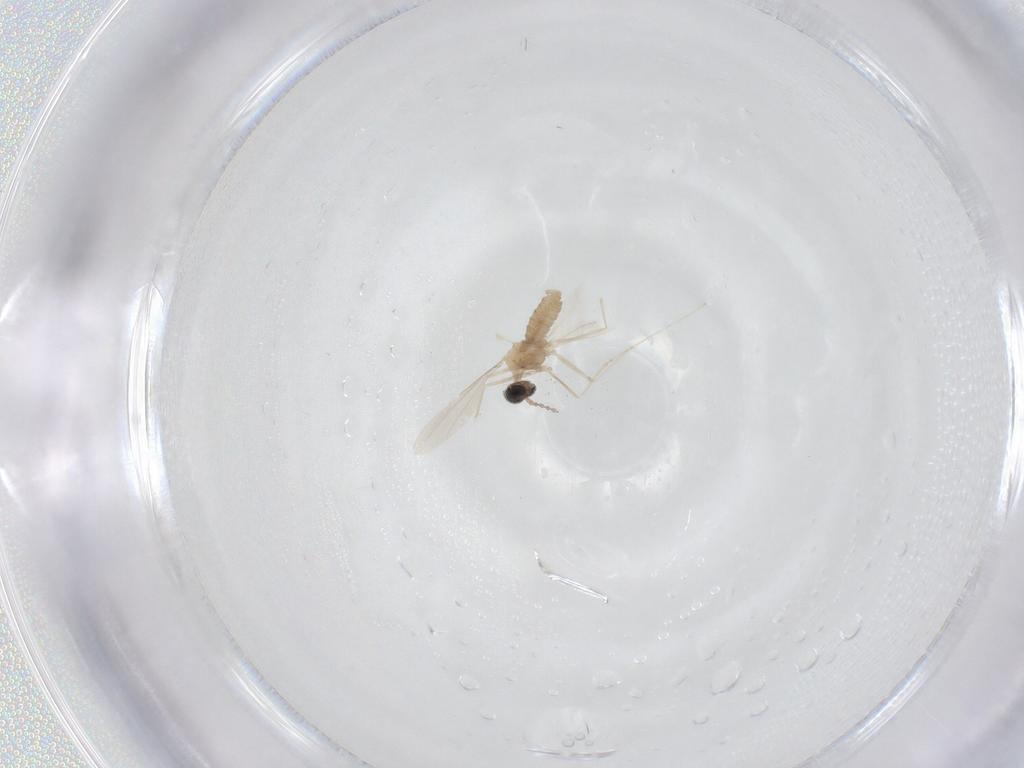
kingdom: Animalia
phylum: Arthropoda
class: Insecta
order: Diptera
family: Cecidomyiidae
